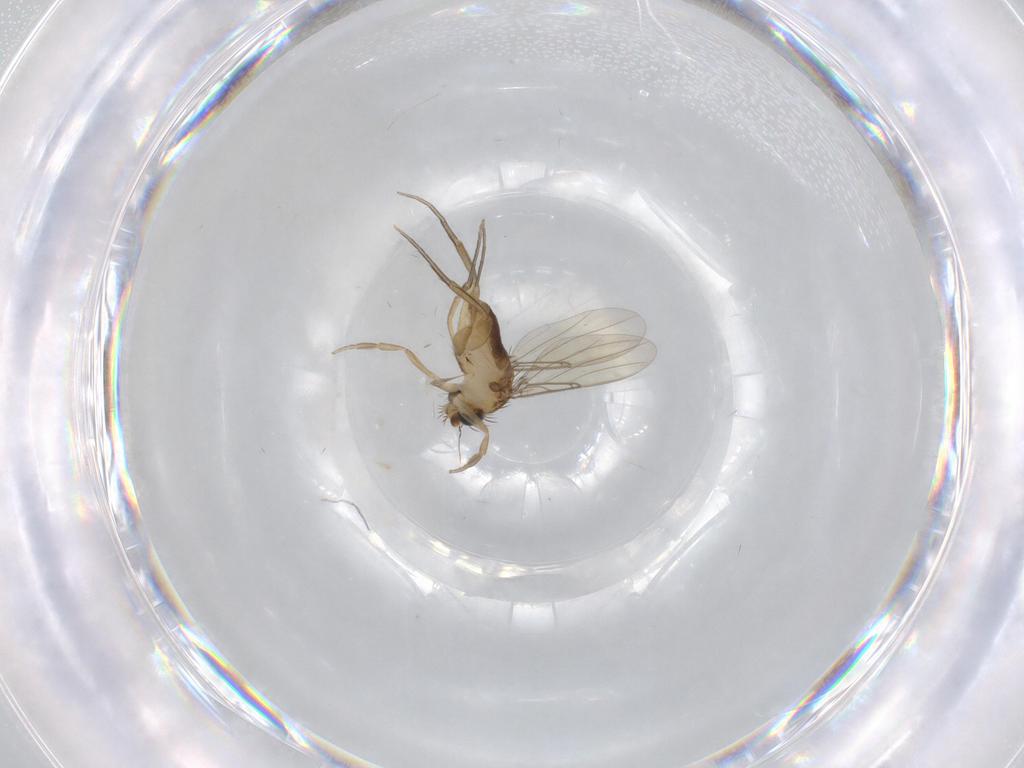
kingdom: Animalia
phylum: Arthropoda
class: Insecta
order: Diptera
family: Phoridae
